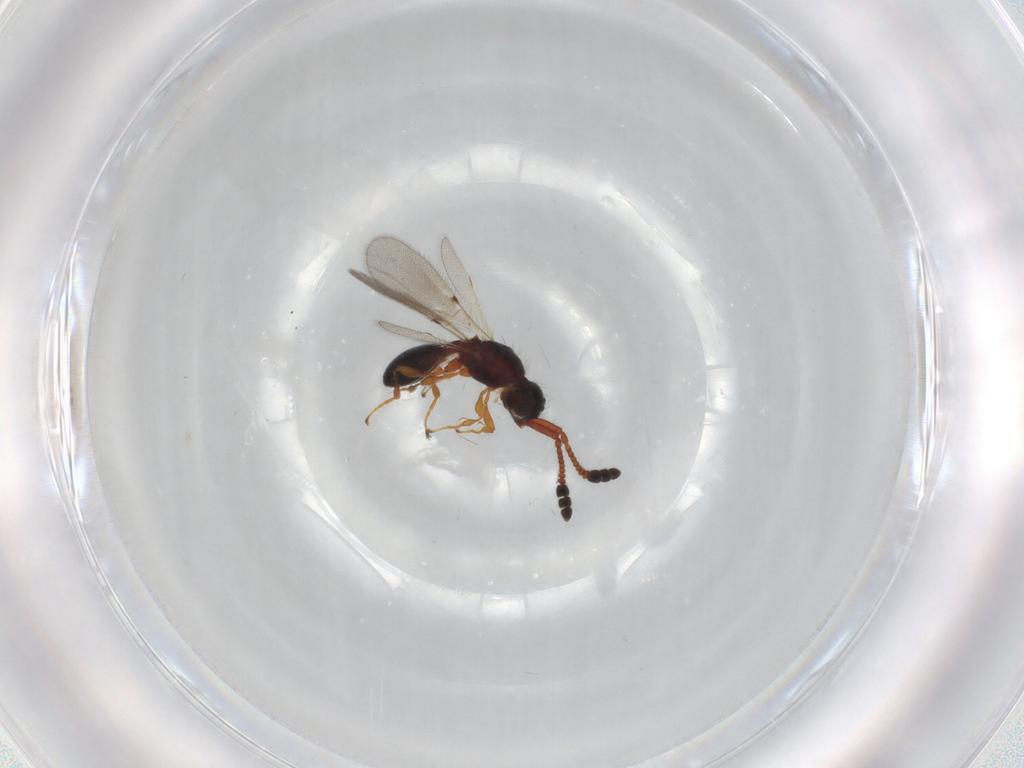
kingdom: Animalia
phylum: Arthropoda
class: Insecta
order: Hymenoptera
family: Diapriidae
